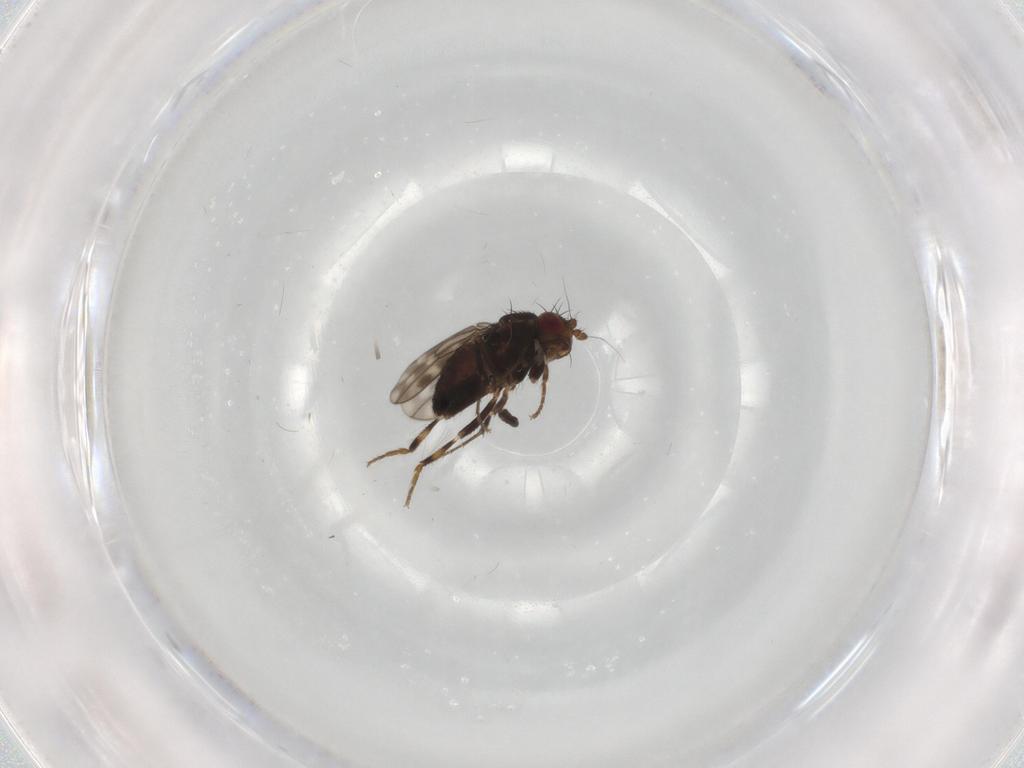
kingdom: Animalia
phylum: Arthropoda
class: Insecta
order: Diptera
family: Sphaeroceridae
